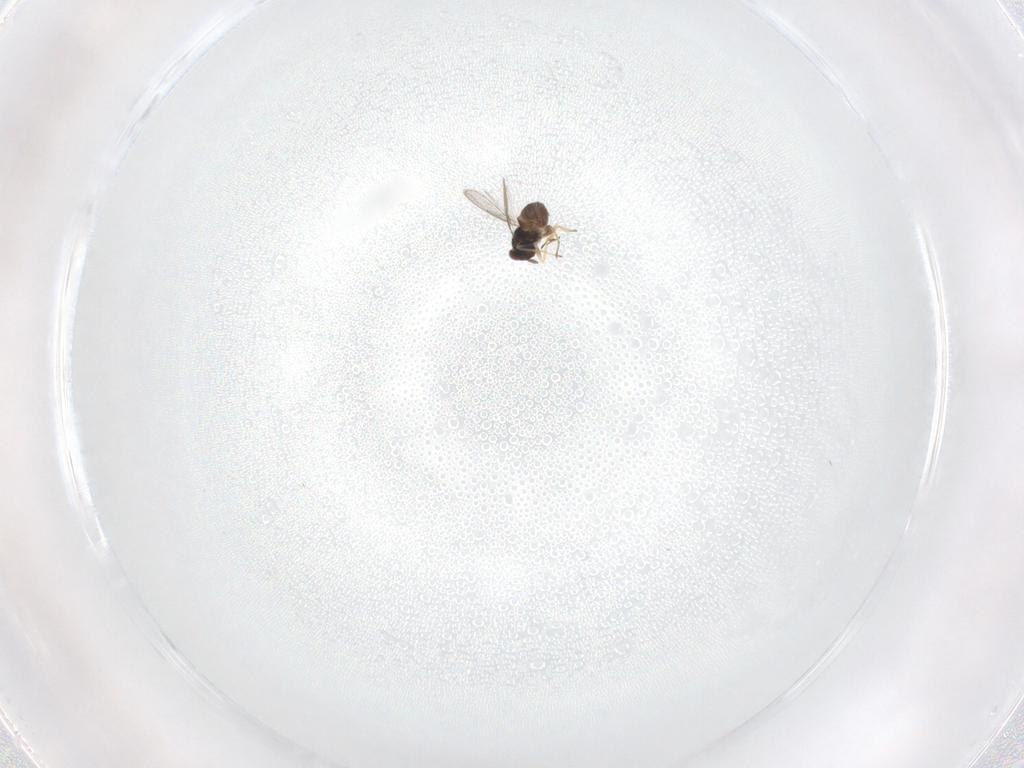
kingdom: Animalia
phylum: Arthropoda
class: Insecta
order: Hymenoptera
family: Eulophidae
